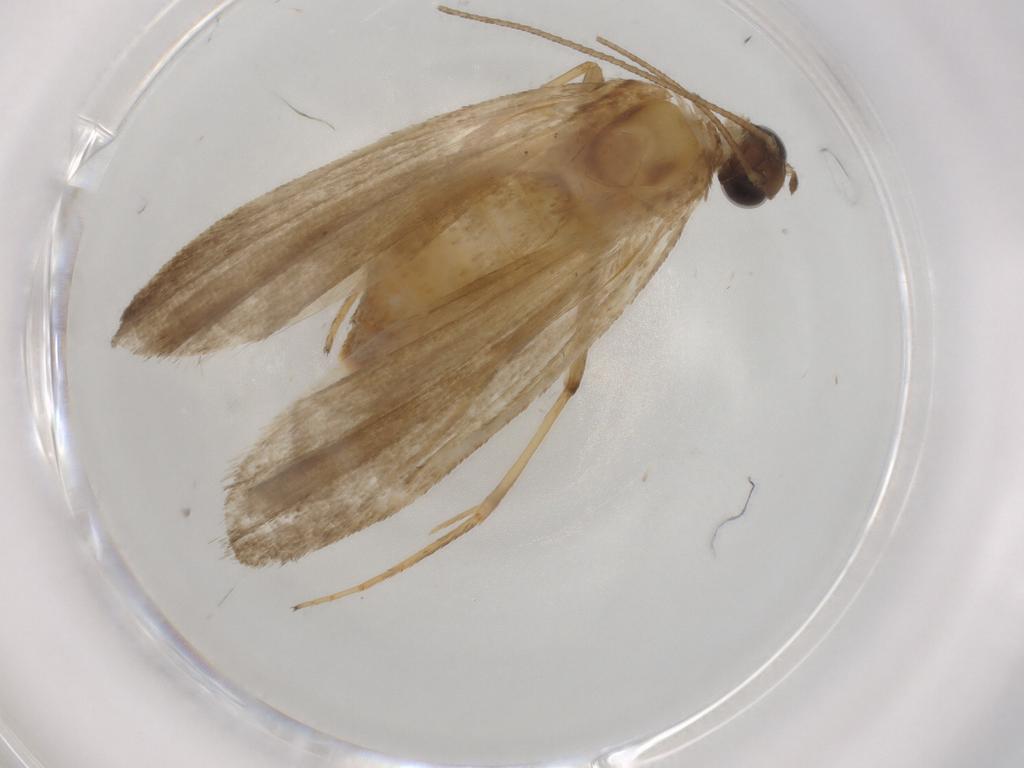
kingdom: Animalia
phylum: Arthropoda
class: Insecta
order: Lepidoptera
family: Noctuidae
